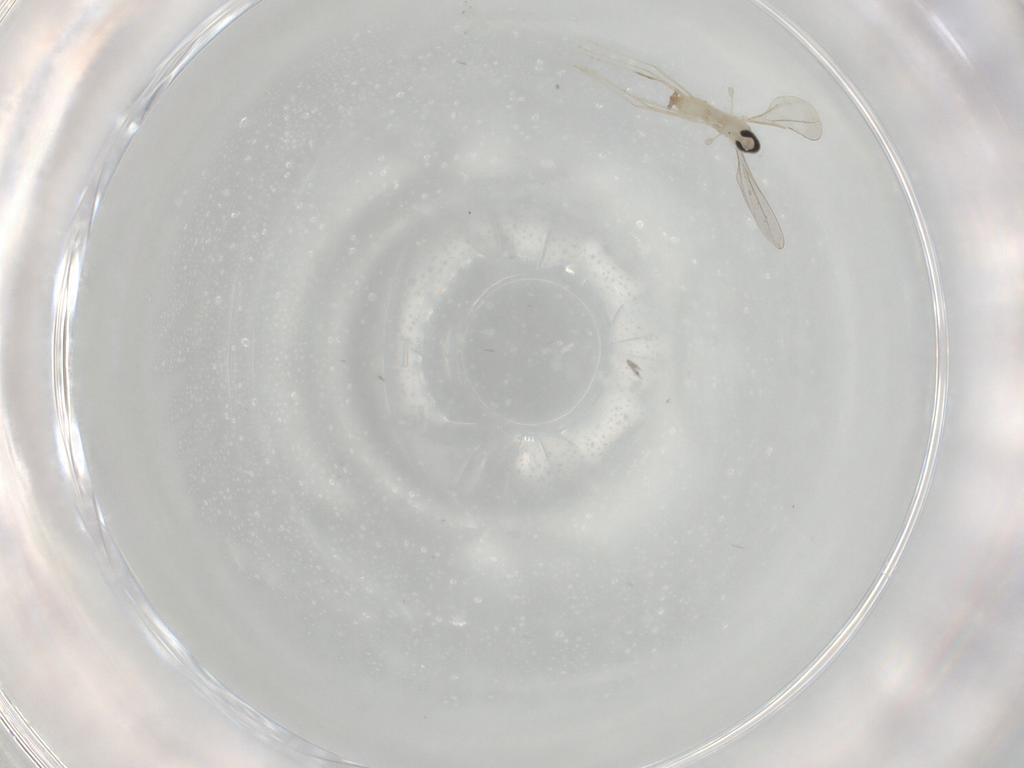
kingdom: Animalia
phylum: Arthropoda
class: Insecta
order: Diptera
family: Cecidomyiidae
